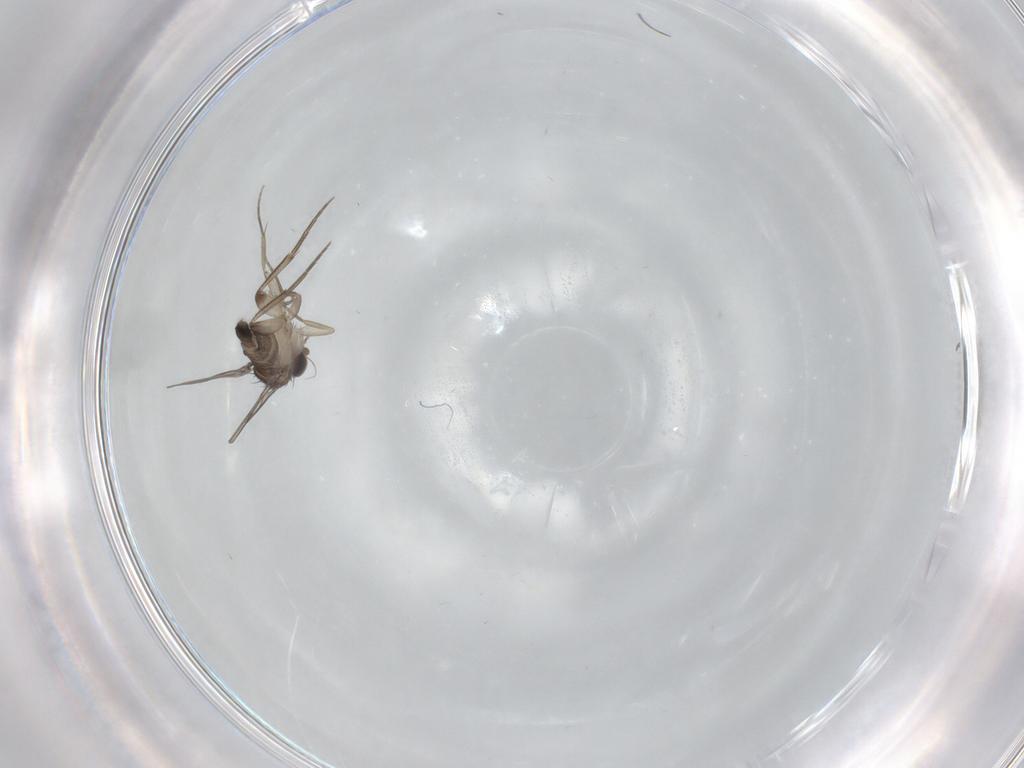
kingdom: Animalia
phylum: Arthropoda
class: Insecta
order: Diptera
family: Phoridae
